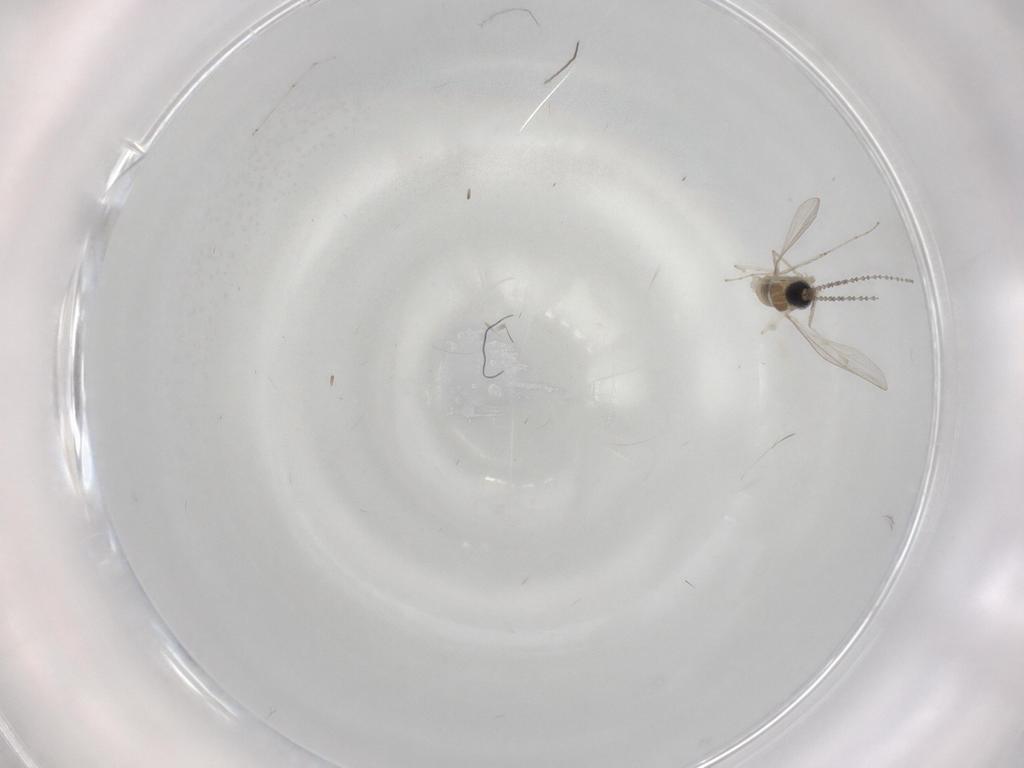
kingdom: Animalia
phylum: Arthropoda
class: Insecta
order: Diptera
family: Cecidomyiidae
